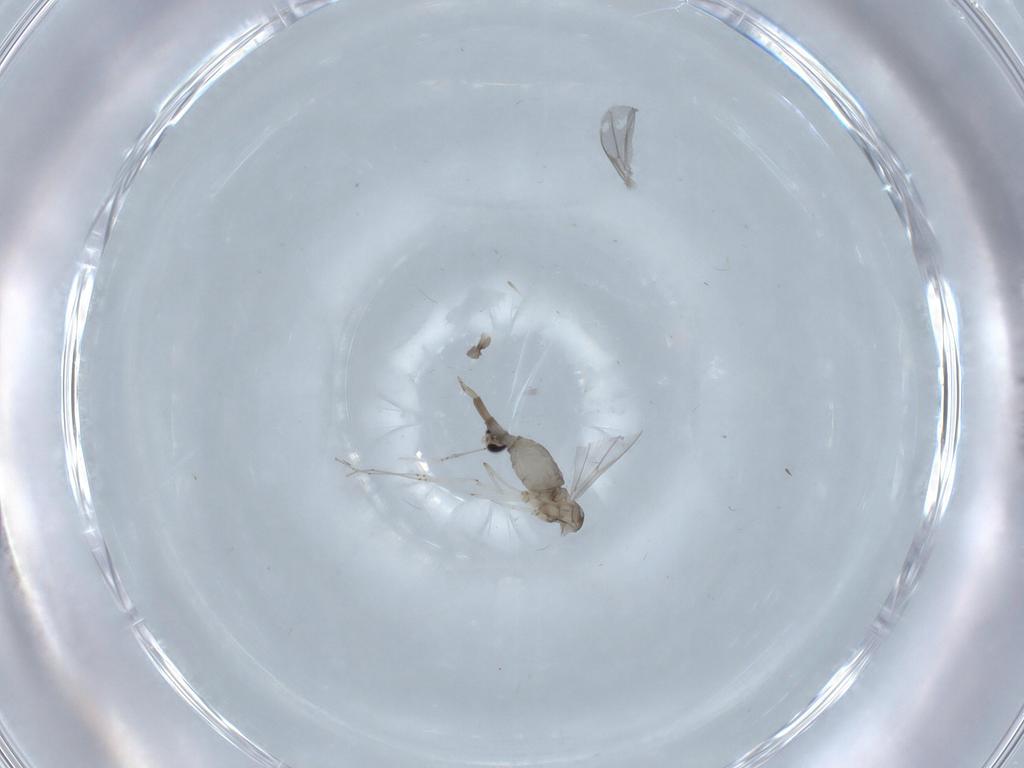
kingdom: Animalia
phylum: Arthropoda
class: Insecta
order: Diptera
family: Cecidomyiidae
